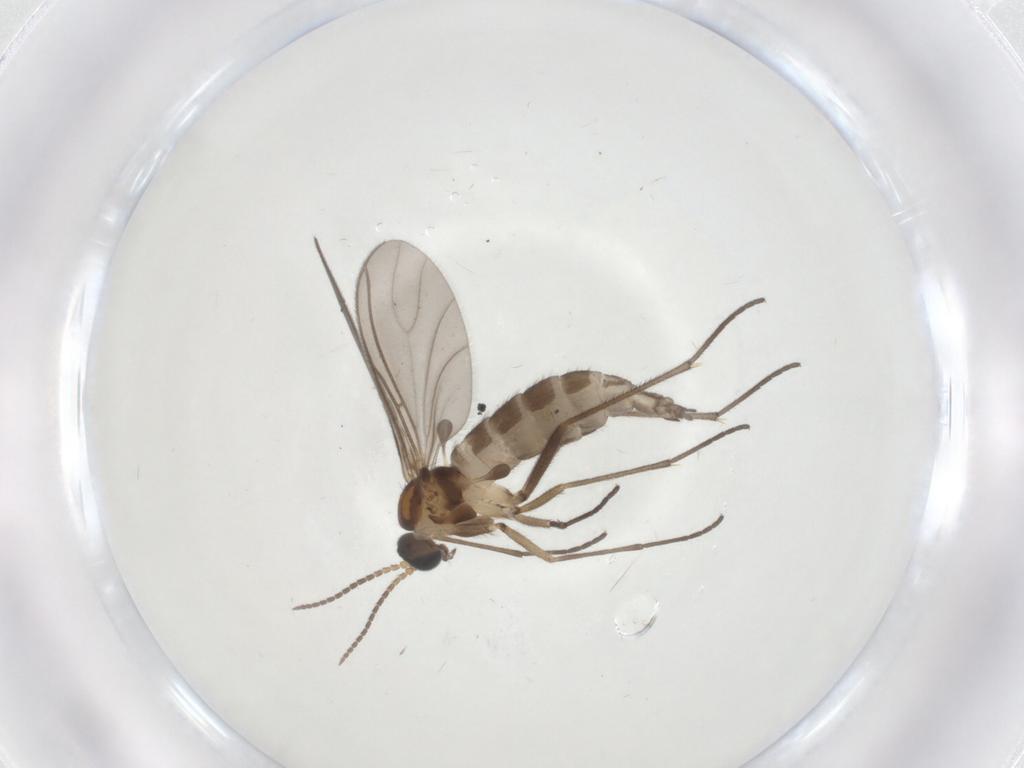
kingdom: Animalia
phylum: Arthropoda
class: Insecta
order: Diptera
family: Sciaridae
